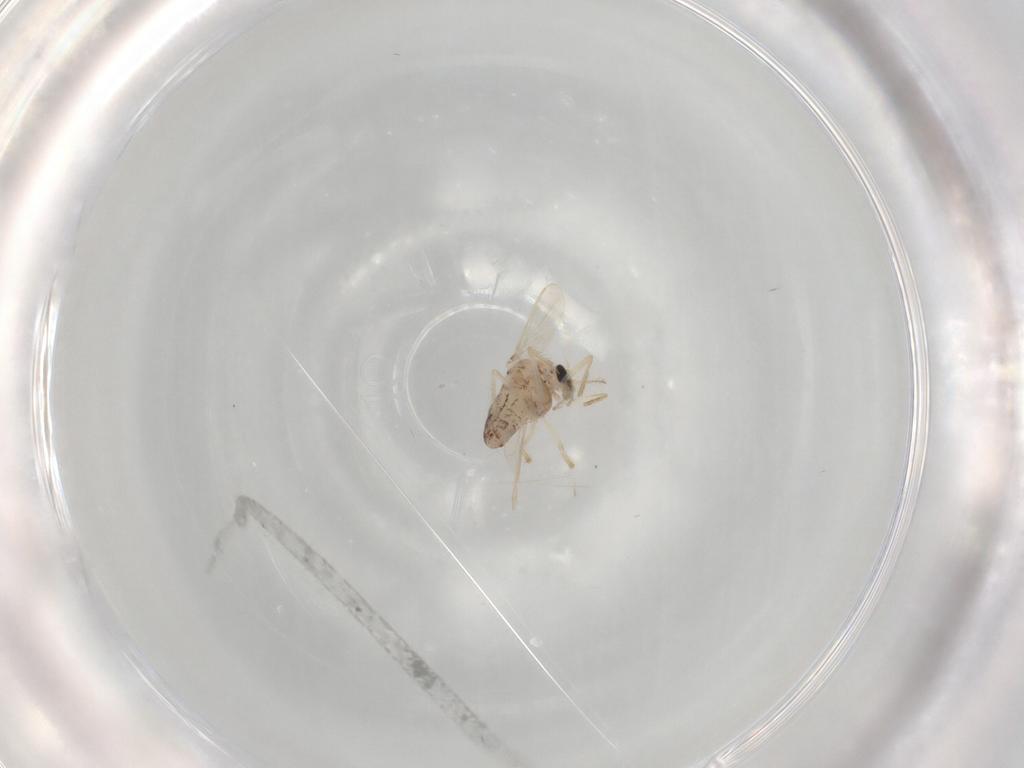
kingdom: Animalia
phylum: Arthropoda
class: Insecta
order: Diptera
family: Chironomidae
